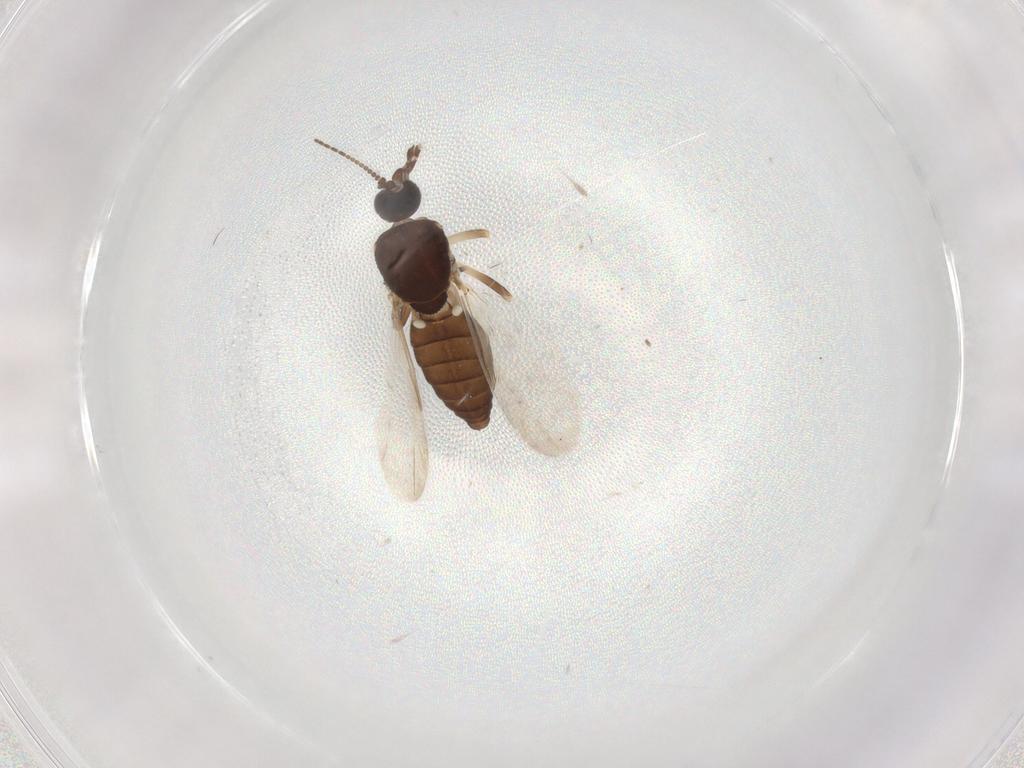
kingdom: Animalia
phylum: Arthropoda
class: Insecta
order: Diptera
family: Ceratopogonidae
